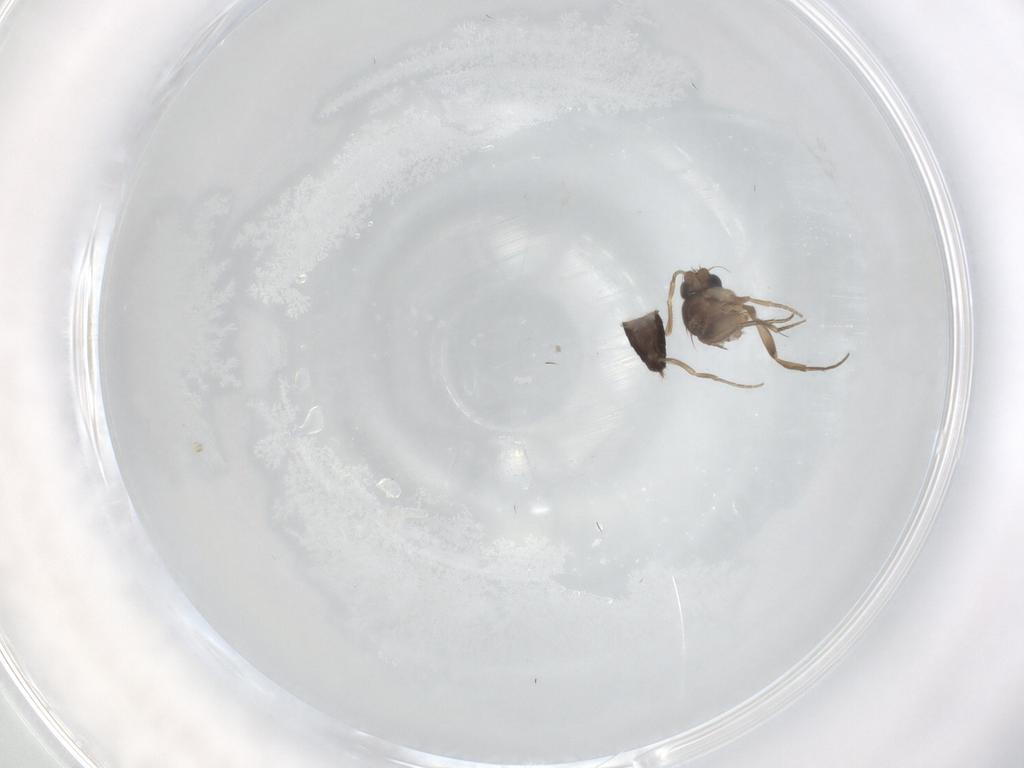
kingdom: Animalia
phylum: Arthropoda
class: Insecta
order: Diptera
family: Phoridae
